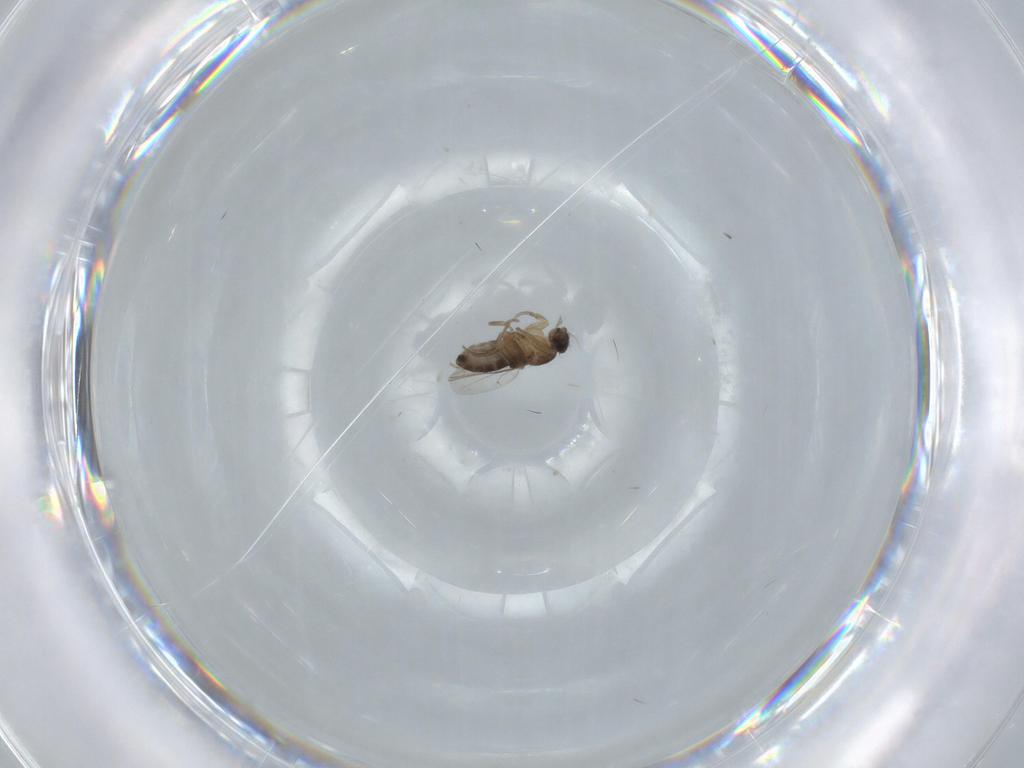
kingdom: Animalia
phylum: Arthropoda
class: Insecta
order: Diptera
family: Phoridae
